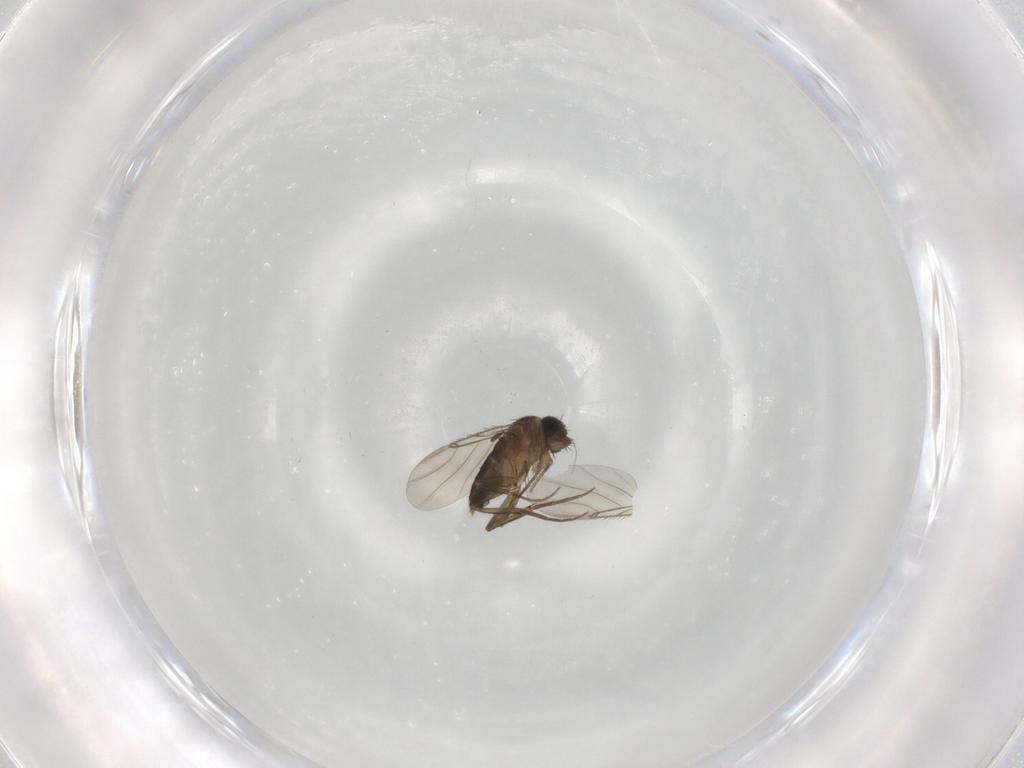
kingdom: Animalia
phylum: Arthropoda
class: Insecta
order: Diptera
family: Phoridae
